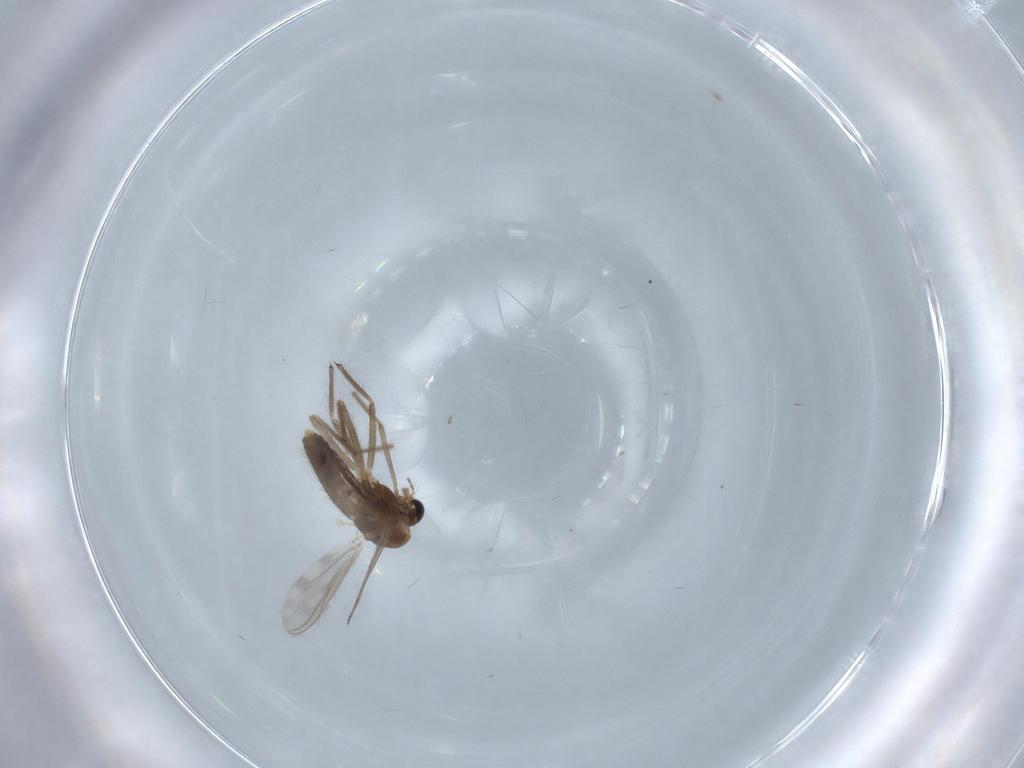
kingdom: Animalia
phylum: Arthropoda
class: Insecta
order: Diptera
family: Chironomidae
